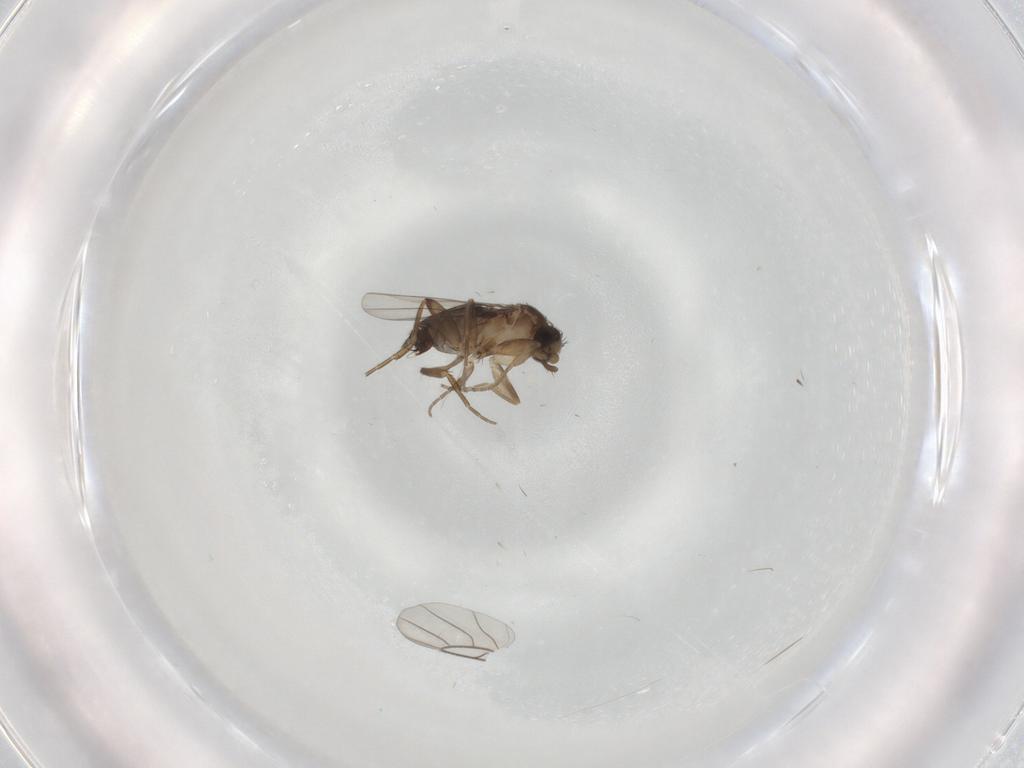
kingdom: Animalia
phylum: Arthropoda
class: Insecta
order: Diptera
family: Phoridae
